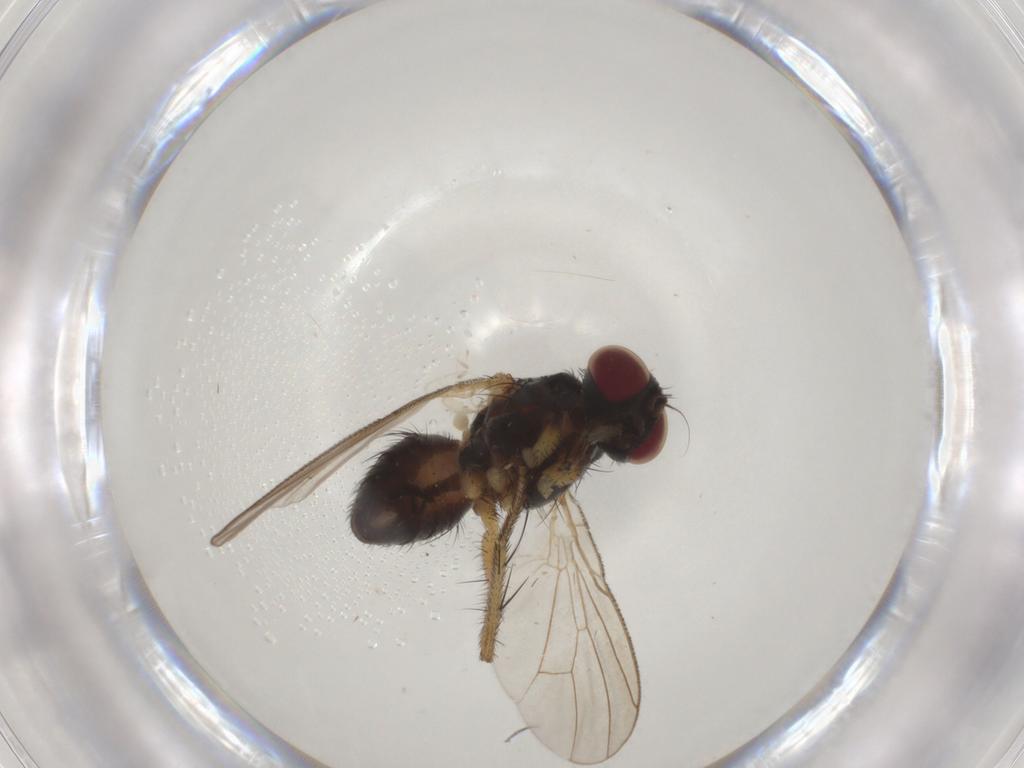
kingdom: Animalia
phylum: Arthropoda
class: Insecta
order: Diptera
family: Muscidae
